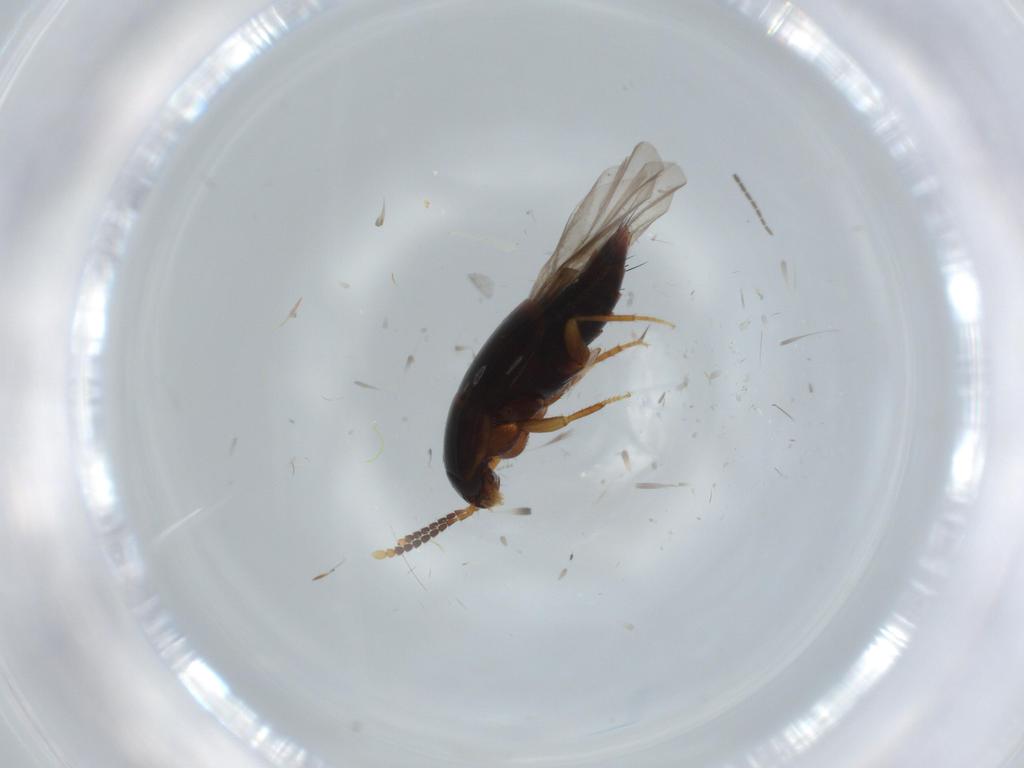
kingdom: Animalia
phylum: Arthropoda
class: Insecta
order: Coleoptera
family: Staphylinidae
